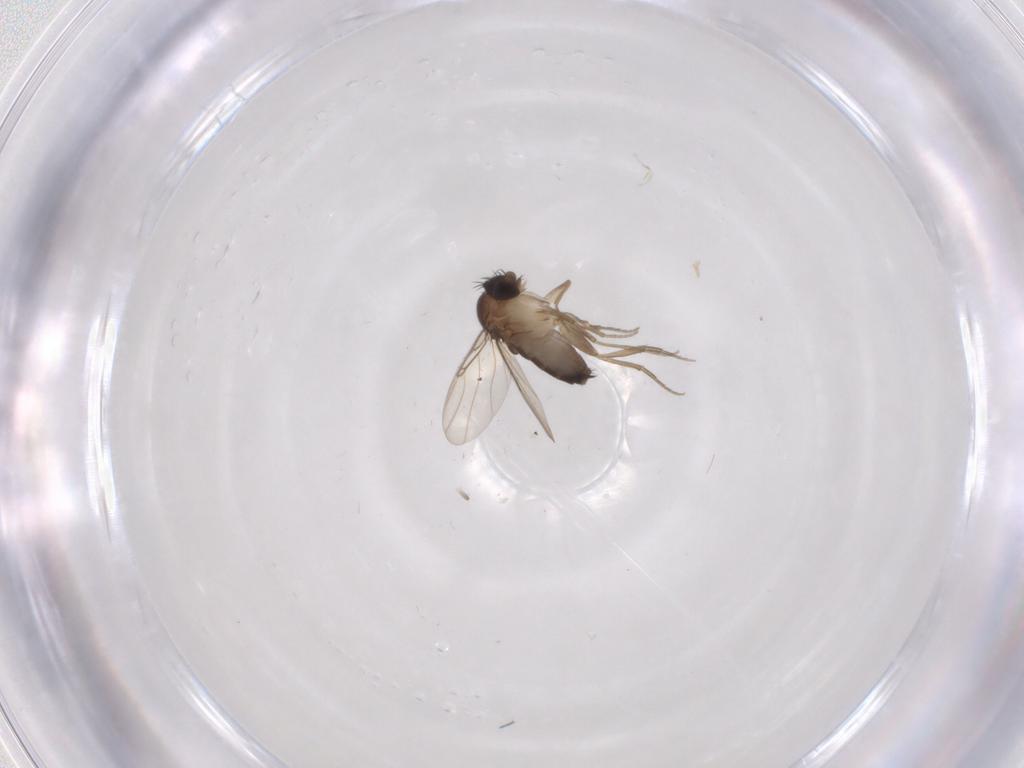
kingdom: Animalia
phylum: Arthropoda
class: Insecta
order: Diptera
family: Phoridae
